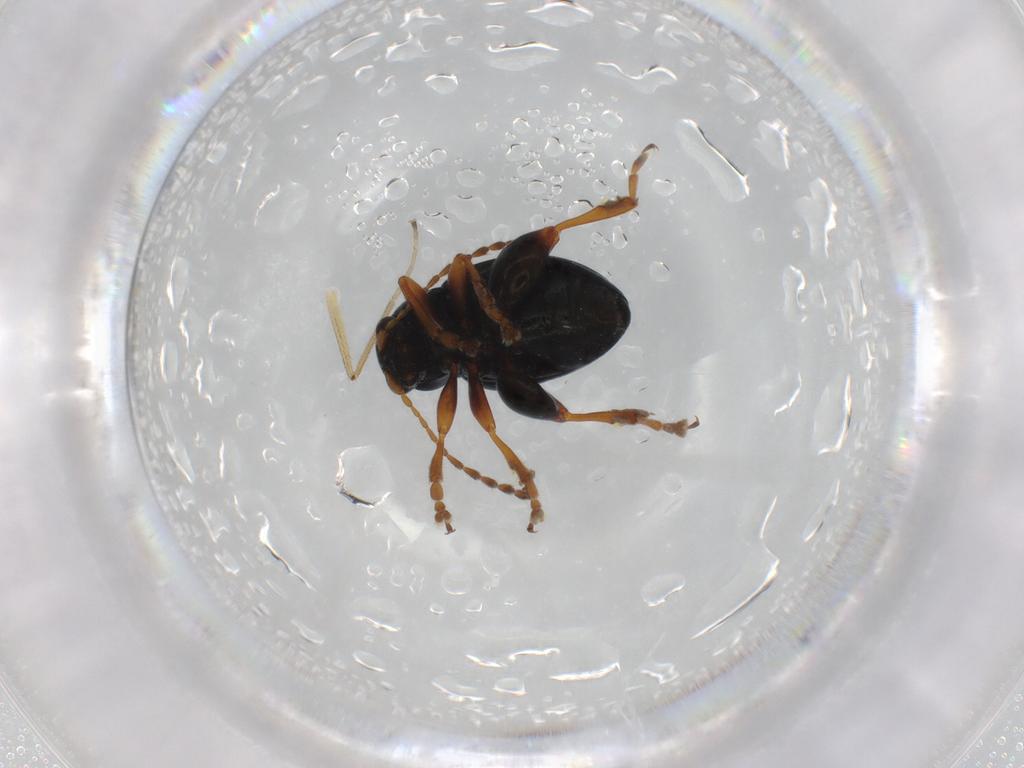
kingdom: Animalia
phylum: Arthropoda
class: Insecta
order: Coleoptera
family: Chrysomelidae
